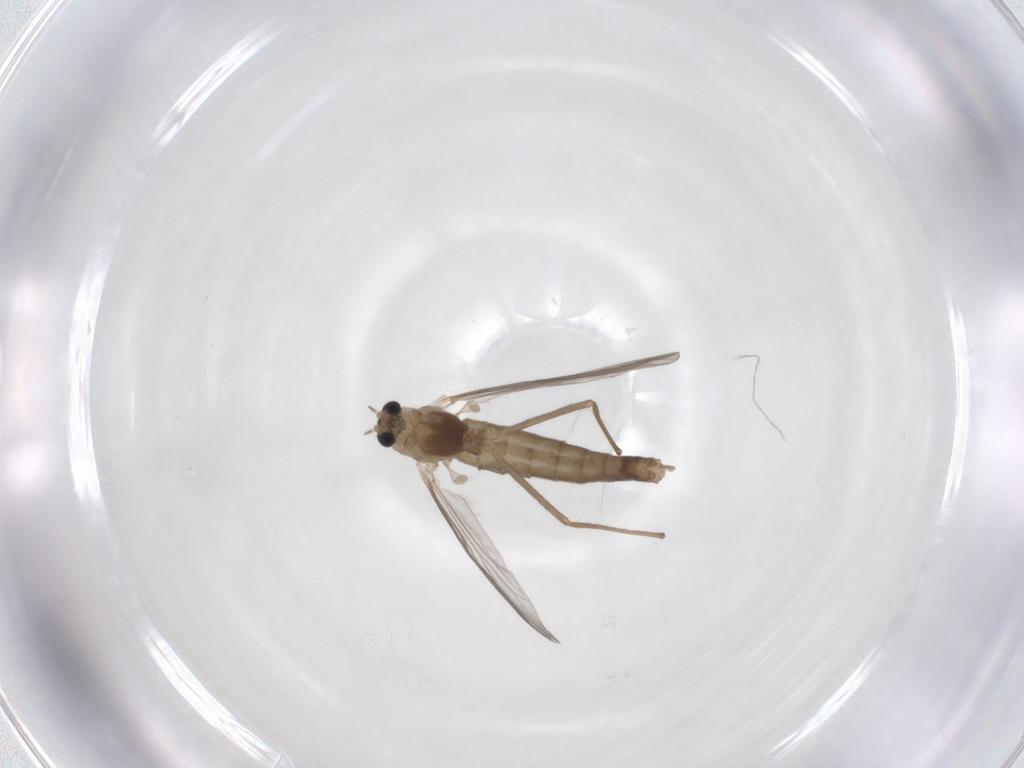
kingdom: Animalia
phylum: Arthropoda
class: Insecta
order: Diptera
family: Chironomidae
